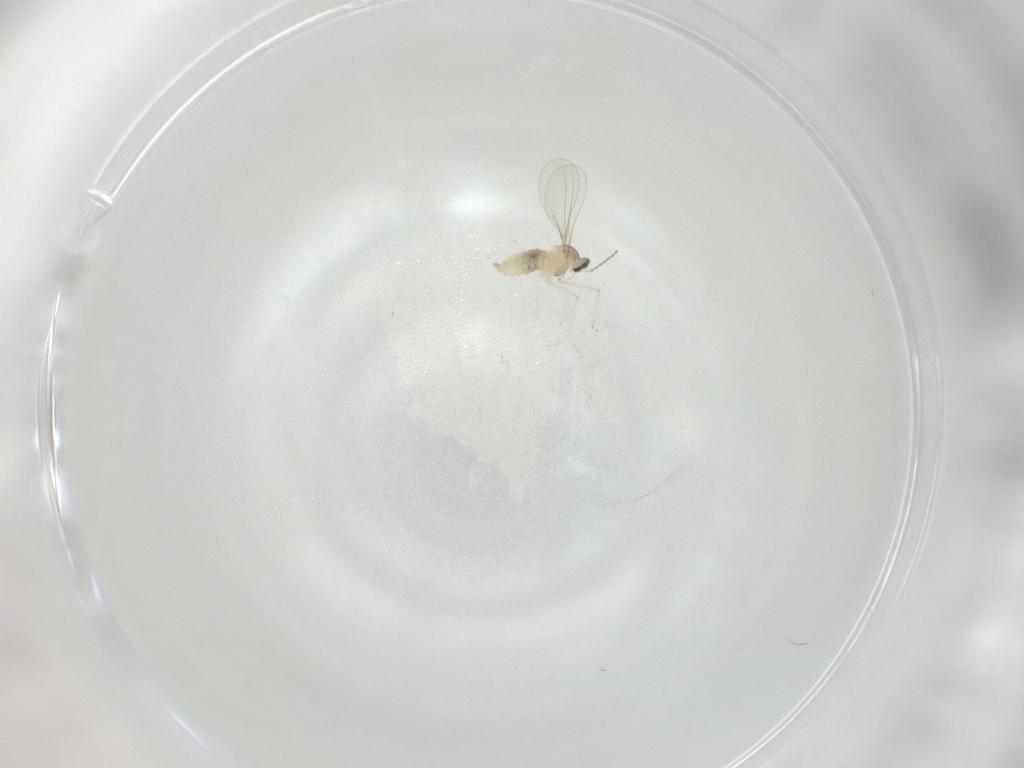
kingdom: Animalia
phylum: Arthropoda
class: Insecta
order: Diptera
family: Cecidomyiidae
